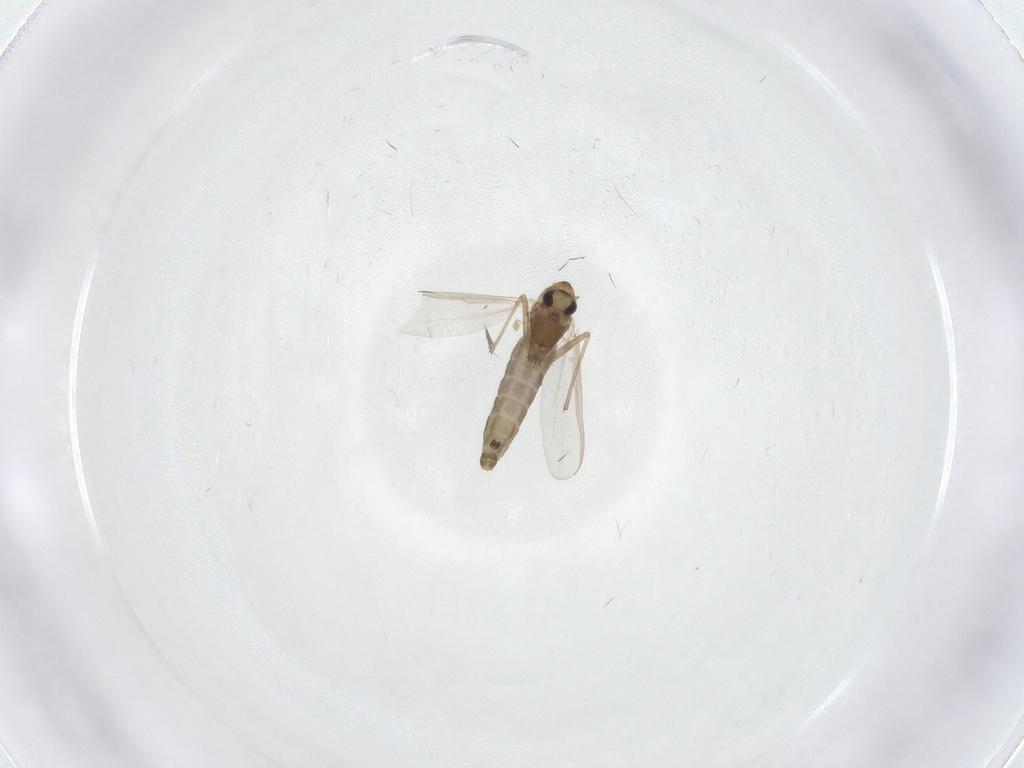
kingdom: Animalia
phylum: Arthropoda
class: Insecta
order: Diptera
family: Chironomidae
